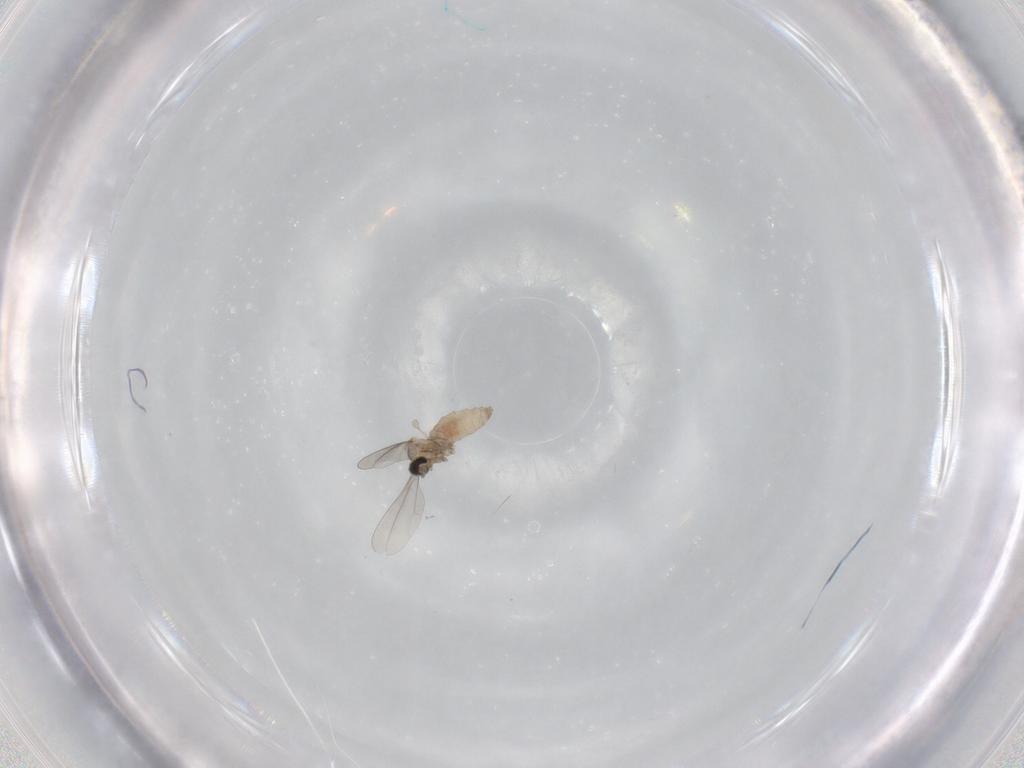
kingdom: Animalia
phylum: Arthropoda
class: Insecta
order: Diptera
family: Cecidomyiidae
